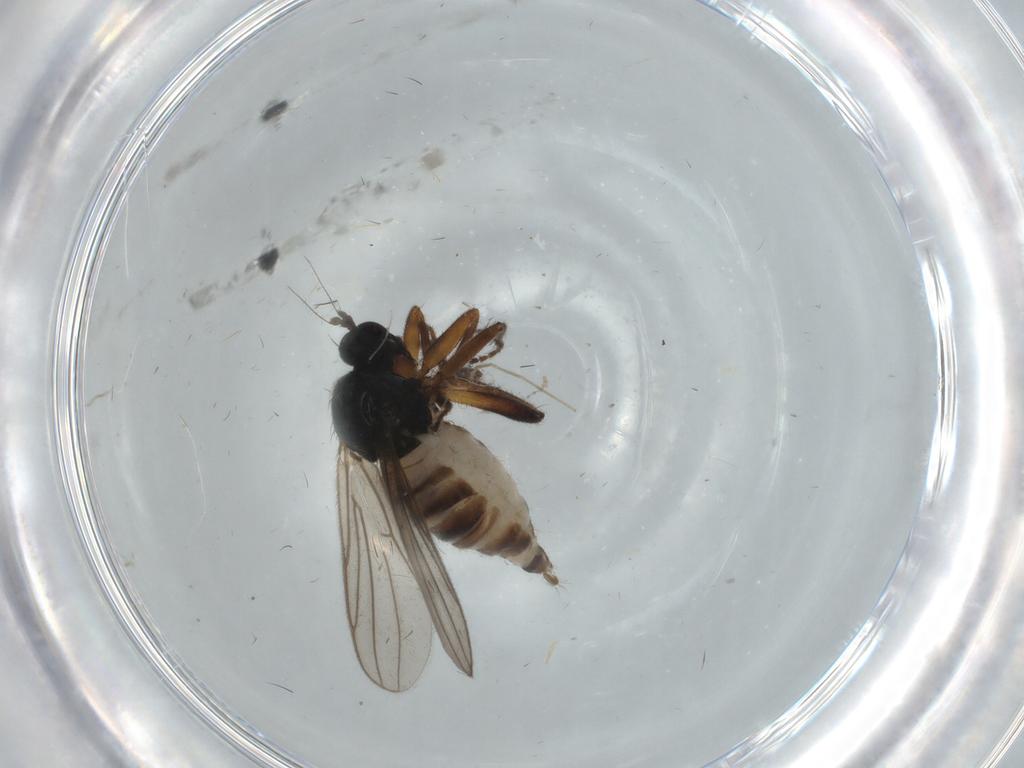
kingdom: Animalia
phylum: Arthropoda
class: Insecta
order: Diptera
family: Hybotidae
